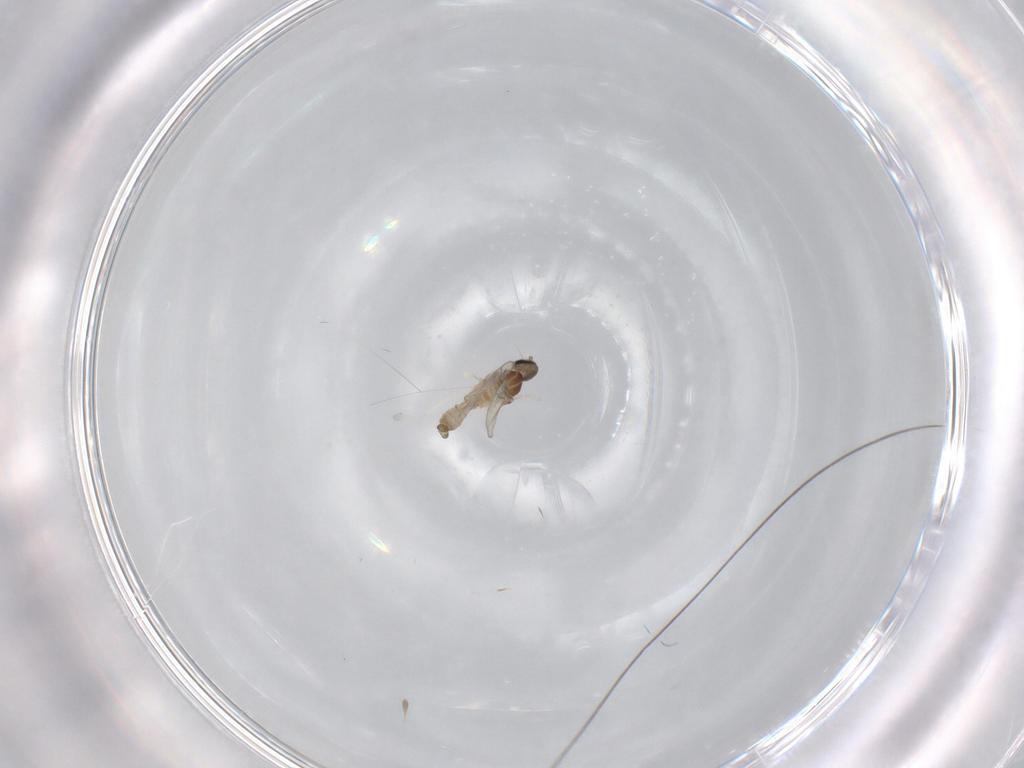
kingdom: Animalia
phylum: Arthropoda
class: Insecta
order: Diptera
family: Cecidomyiidae
